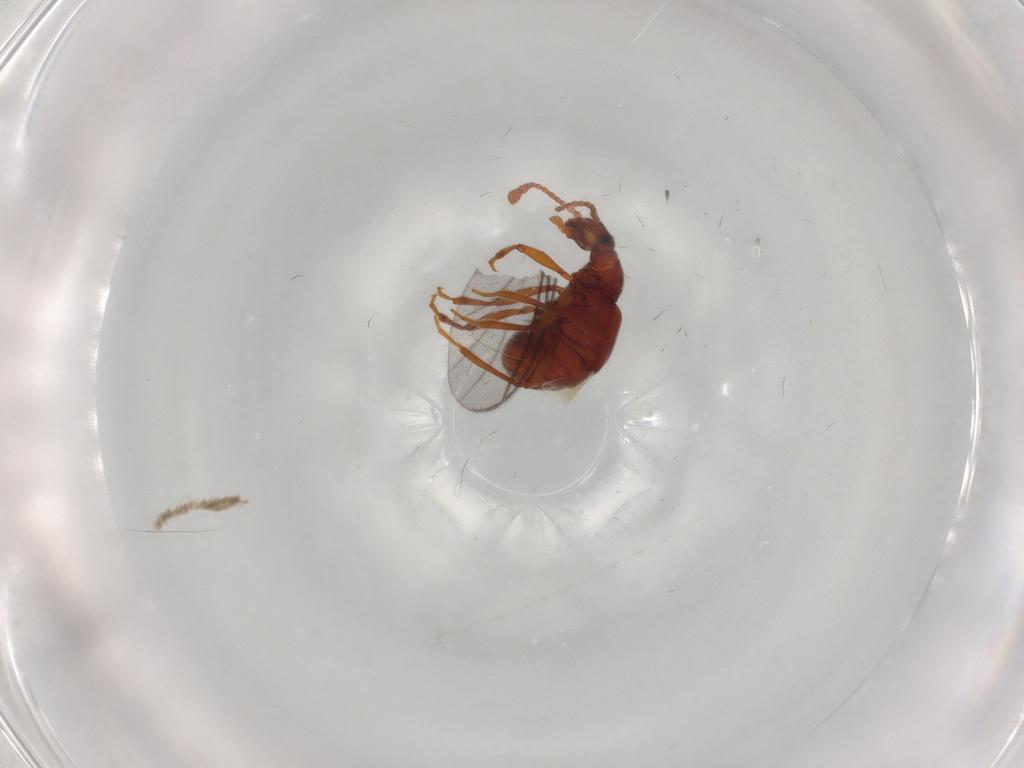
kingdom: Animalia
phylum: Arthropoda
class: Insecta
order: Coleoptera
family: Staphylinidae
